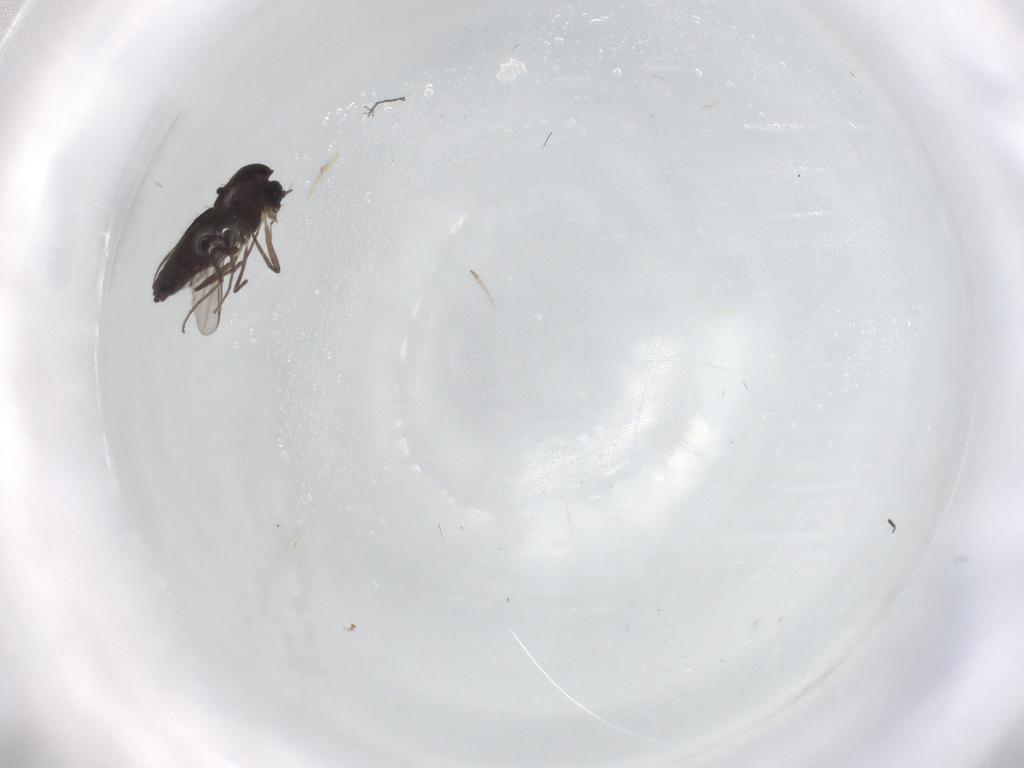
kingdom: Animalia
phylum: Arthropoda
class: Insecta
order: Diptera
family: Chironomidae
